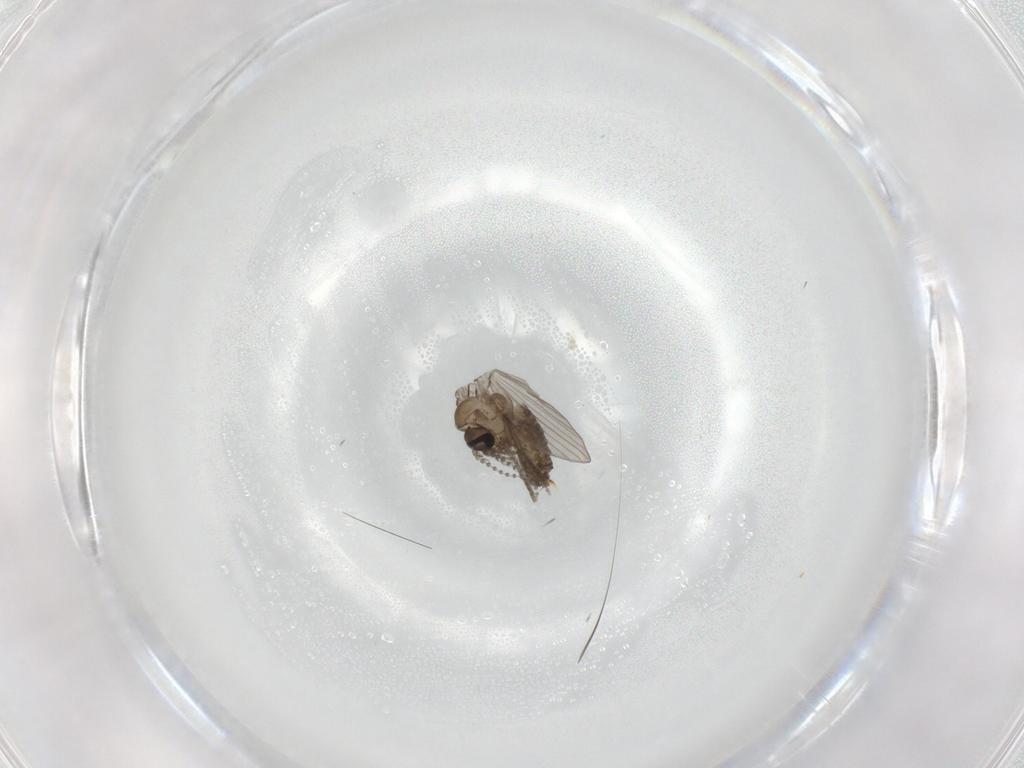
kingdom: Animalia
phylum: Arthropoda
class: Insecta
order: Diptera
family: Psychodidae
